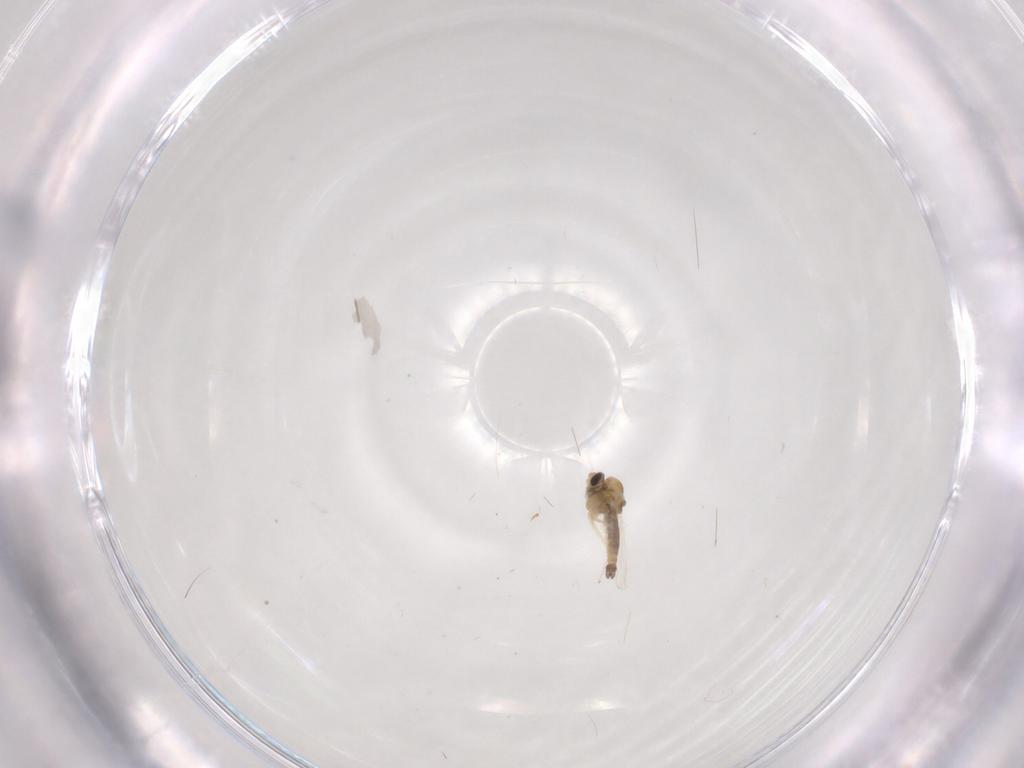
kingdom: Animalia
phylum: Arthropoda
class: Insecta
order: Diptera
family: Chironomidae
